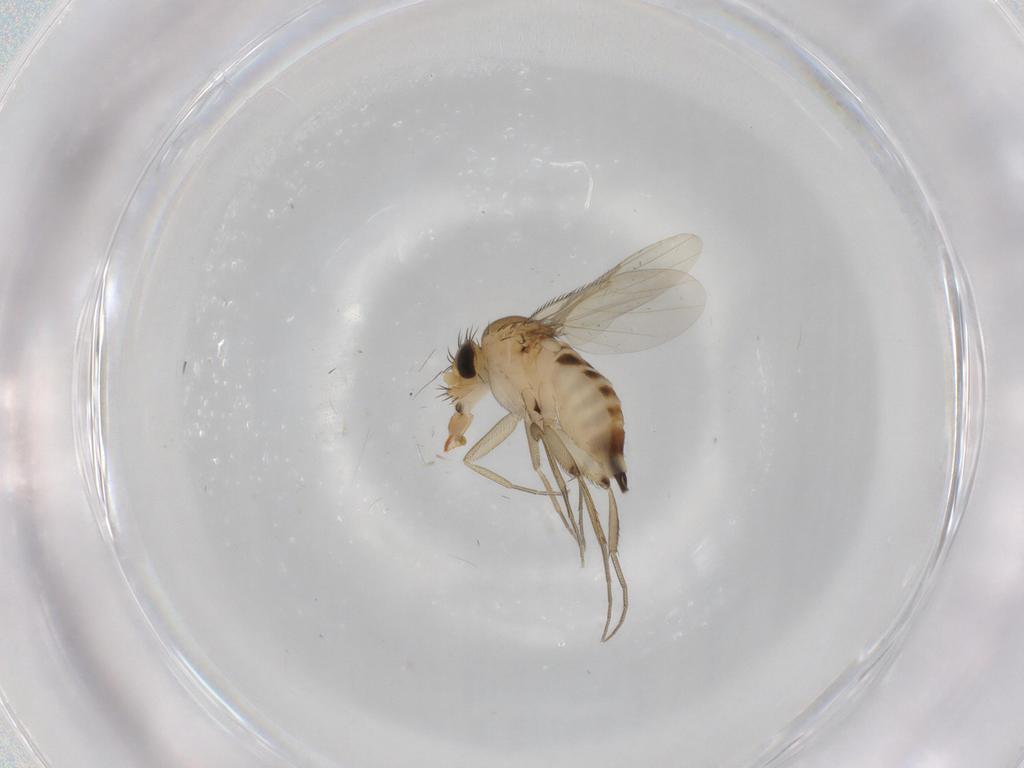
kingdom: Animalia
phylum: Arthropoda
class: Insecta
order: Diptera
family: Phoridae
